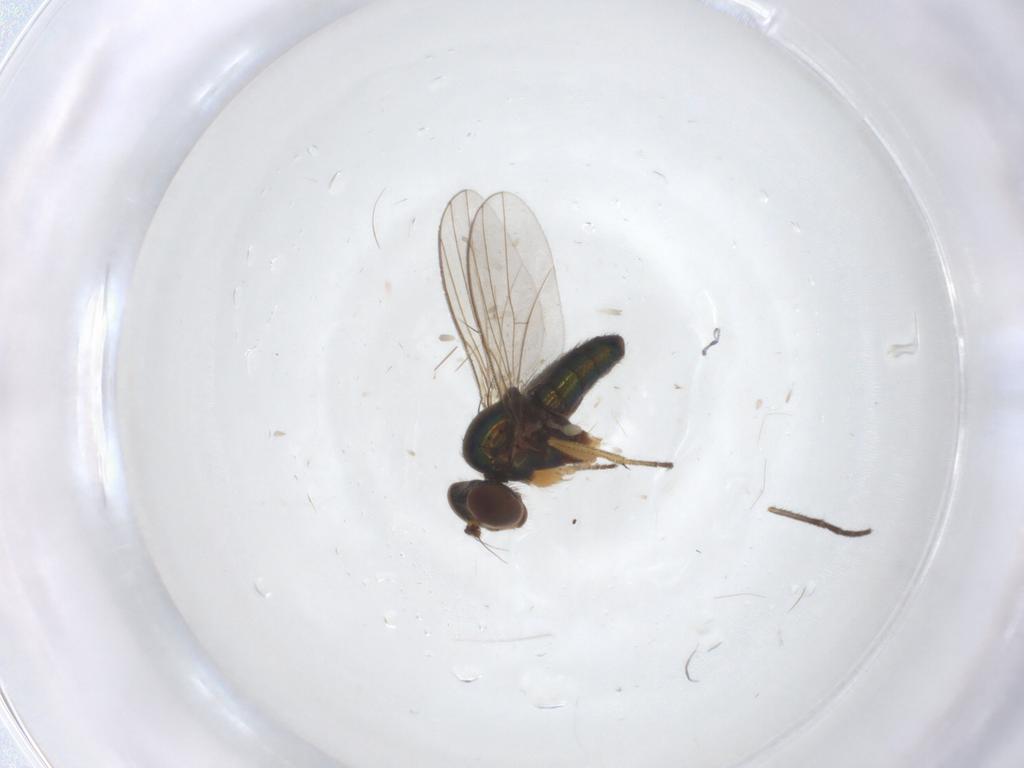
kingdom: Animalia
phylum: Arthropoda
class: Insecta
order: Diptera
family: Sciaridae
